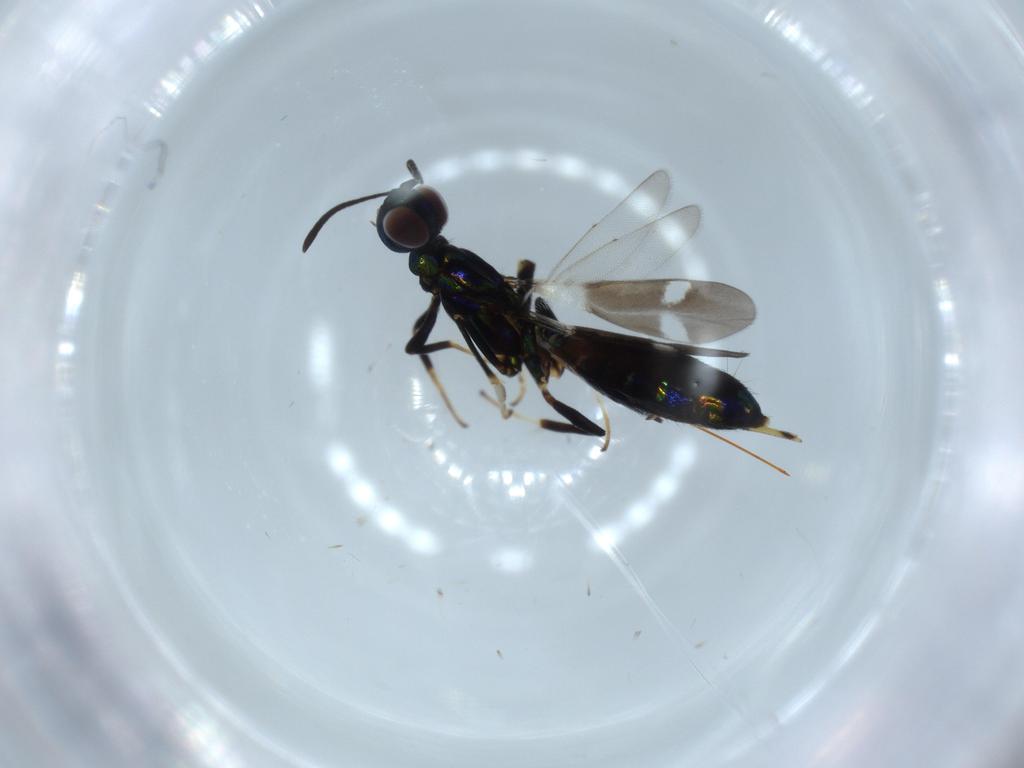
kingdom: Animalia
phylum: Arthropoda
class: Insecta
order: Hymenoptera
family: Eupelmidae
